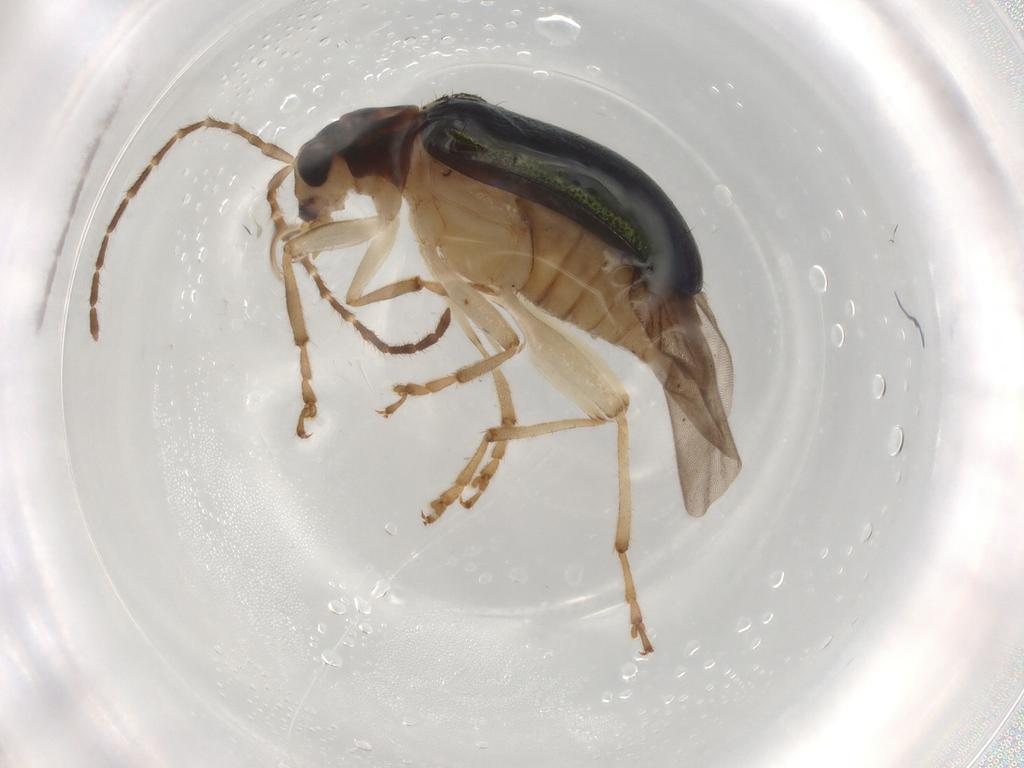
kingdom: Animalia
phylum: Arthropoda
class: Insecta
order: Coleoptera
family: Chrysomelidae
